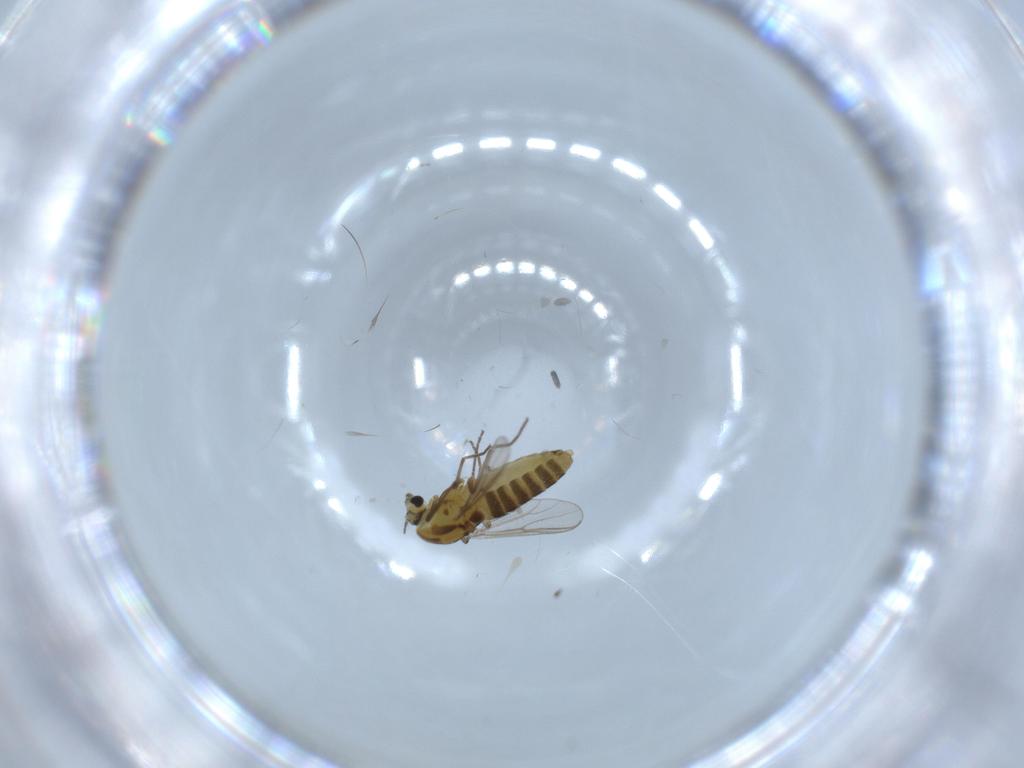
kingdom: Animalia
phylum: Arthropoda
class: Insecta
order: Diptera
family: Chironomidae
